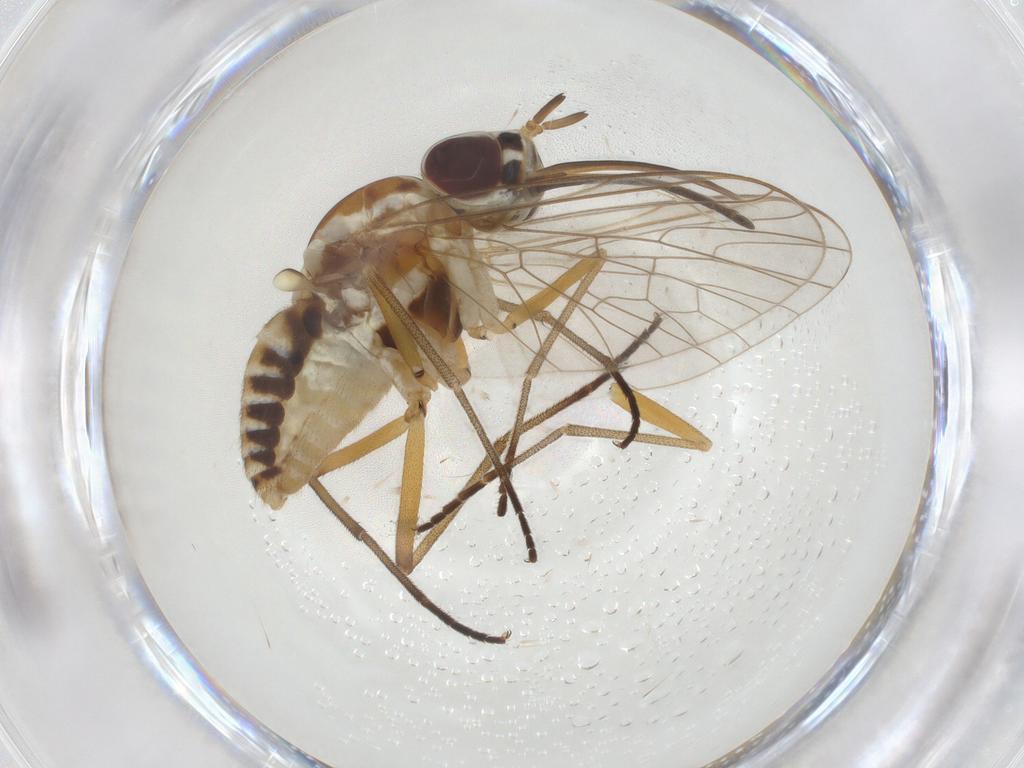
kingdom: Animalia
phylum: Arthropoda
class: Insecta
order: Diptera
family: Bombyliidae
